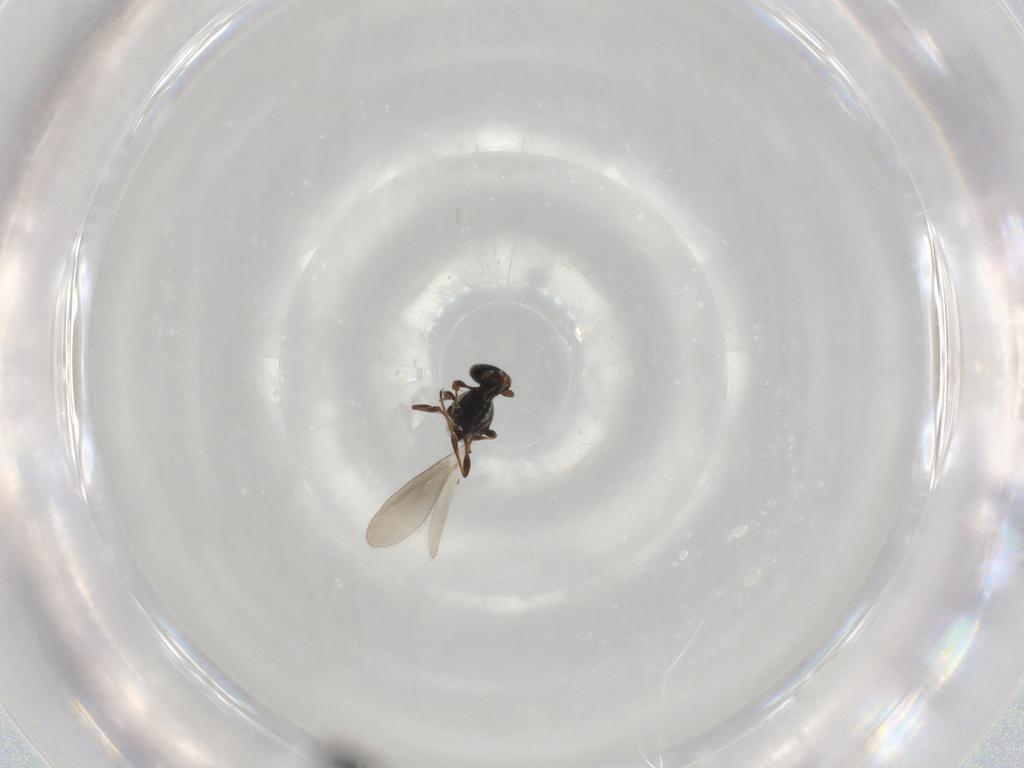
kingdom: Animalia
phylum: Arthropoda
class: Insecta
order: Hymenoptera
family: Platygastridae
